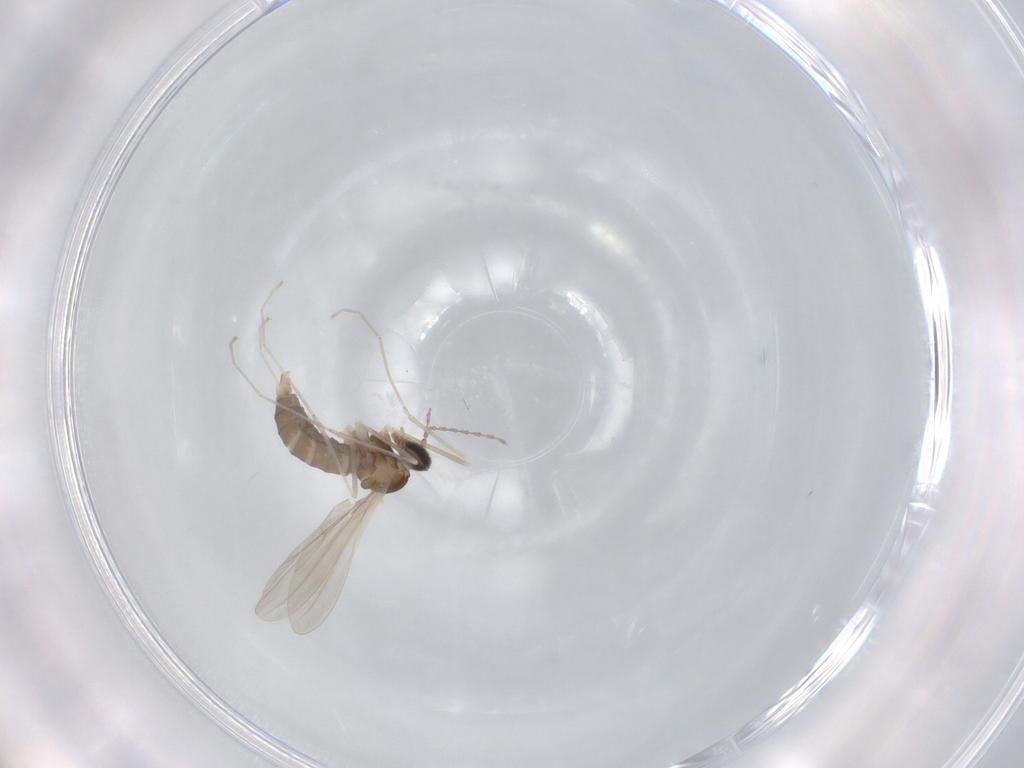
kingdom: Animalia
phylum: Arthropoda
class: Insecta
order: Diptera
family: Cecidomyiidae
